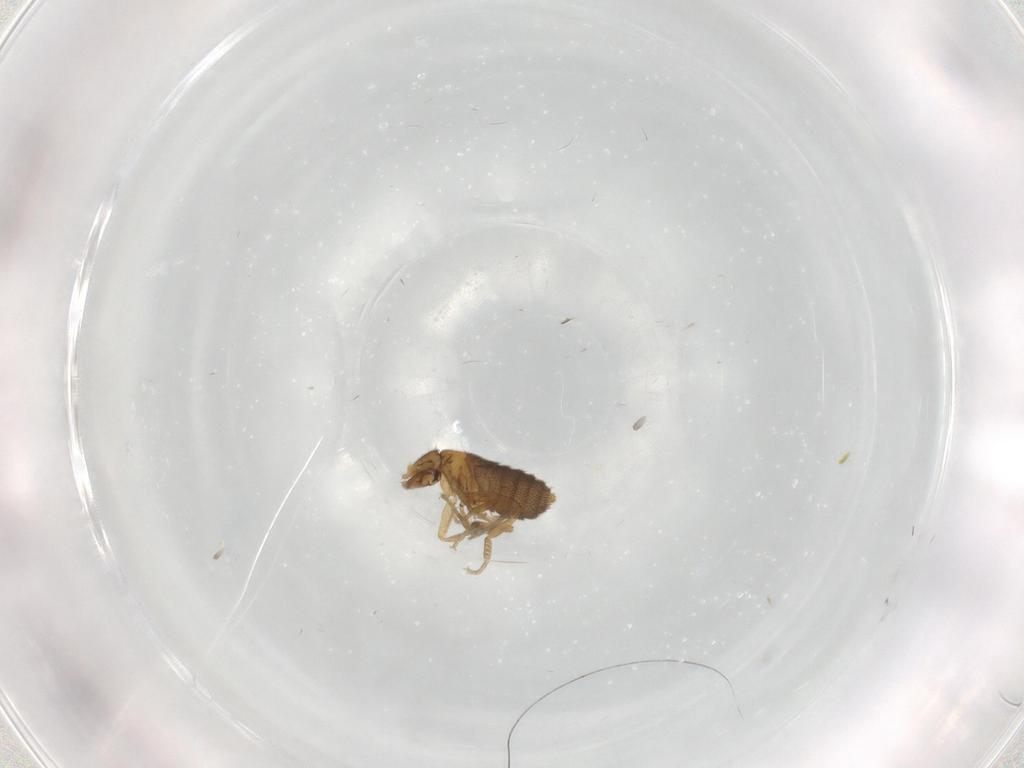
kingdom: Animalia
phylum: Arthropoda
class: Insecta
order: Diptera
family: Phoridae
